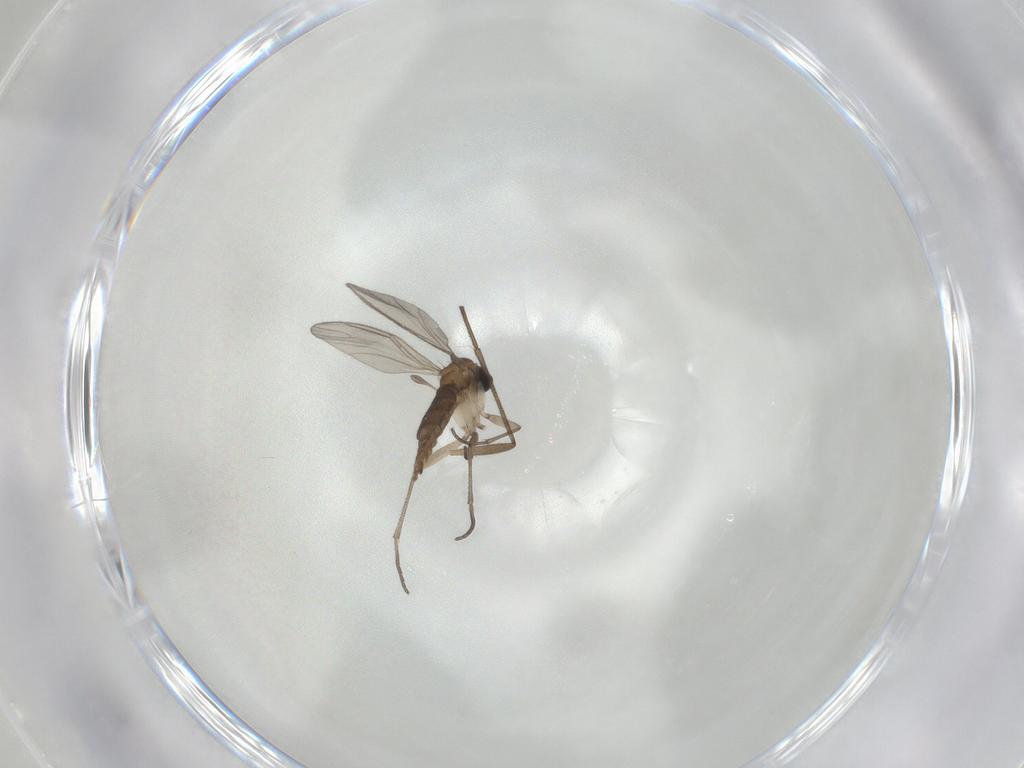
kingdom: Animalia
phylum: Arthropoda
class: Insecta
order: Diptera
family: Sciaridae
